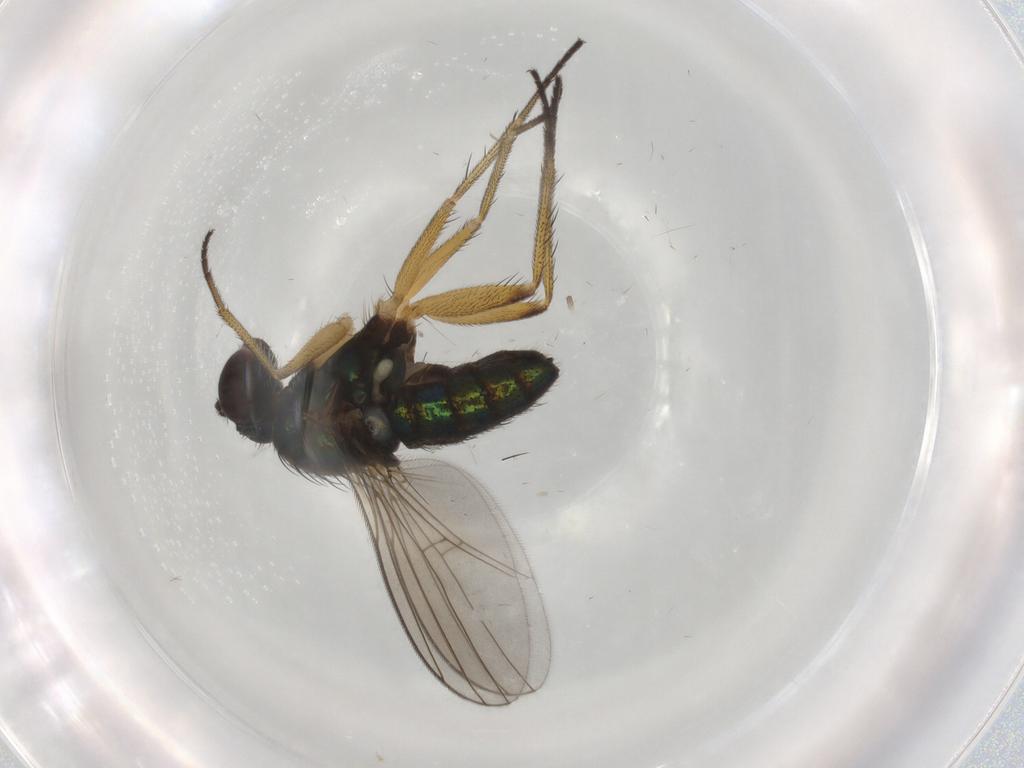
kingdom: Animalia
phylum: Arthropoda
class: Insecta
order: Diptera
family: Dolichopodidae
